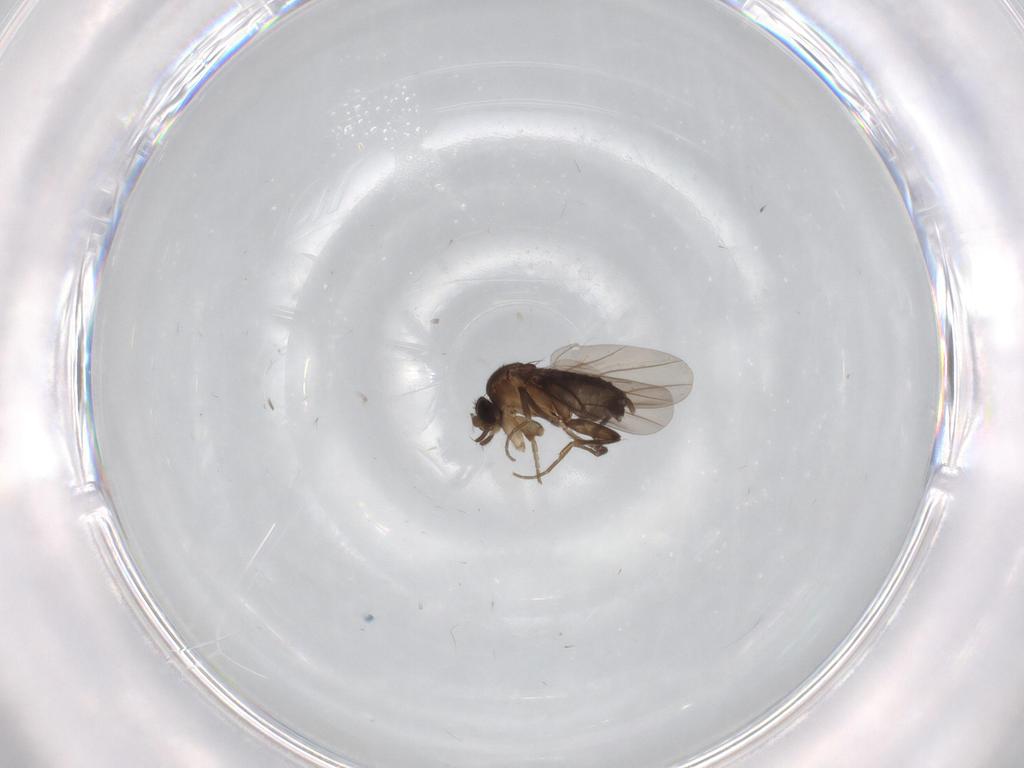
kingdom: Animalia
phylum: Arthropoda
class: Insecta
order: Diptera
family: Phoridae
